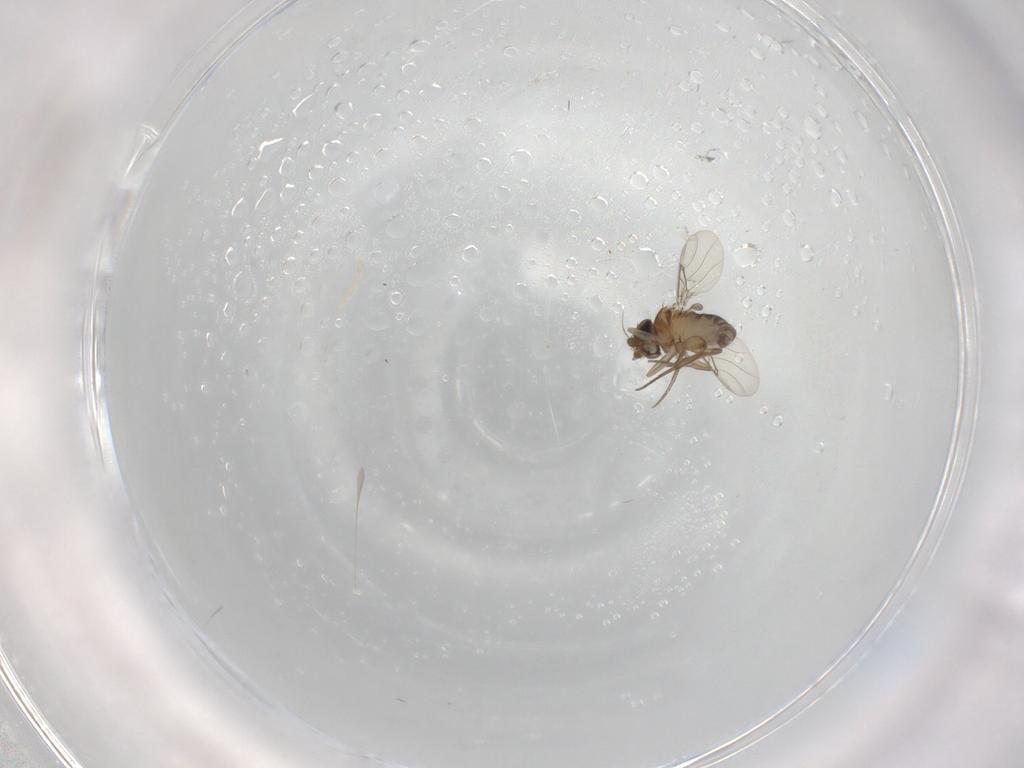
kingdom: Animalia
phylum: Arthropoda
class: Insecta
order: Diptera
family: Phoridae
